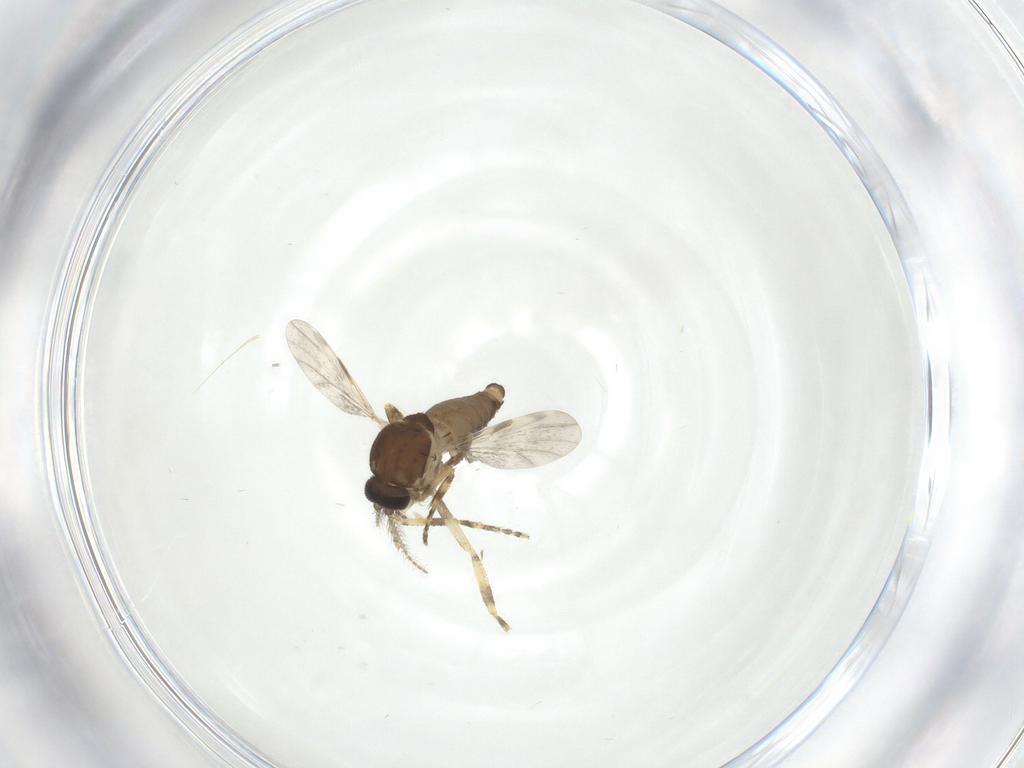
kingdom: Animalia
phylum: Arthropoda
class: Insecta
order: Diptera
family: Ceratopogonidae
